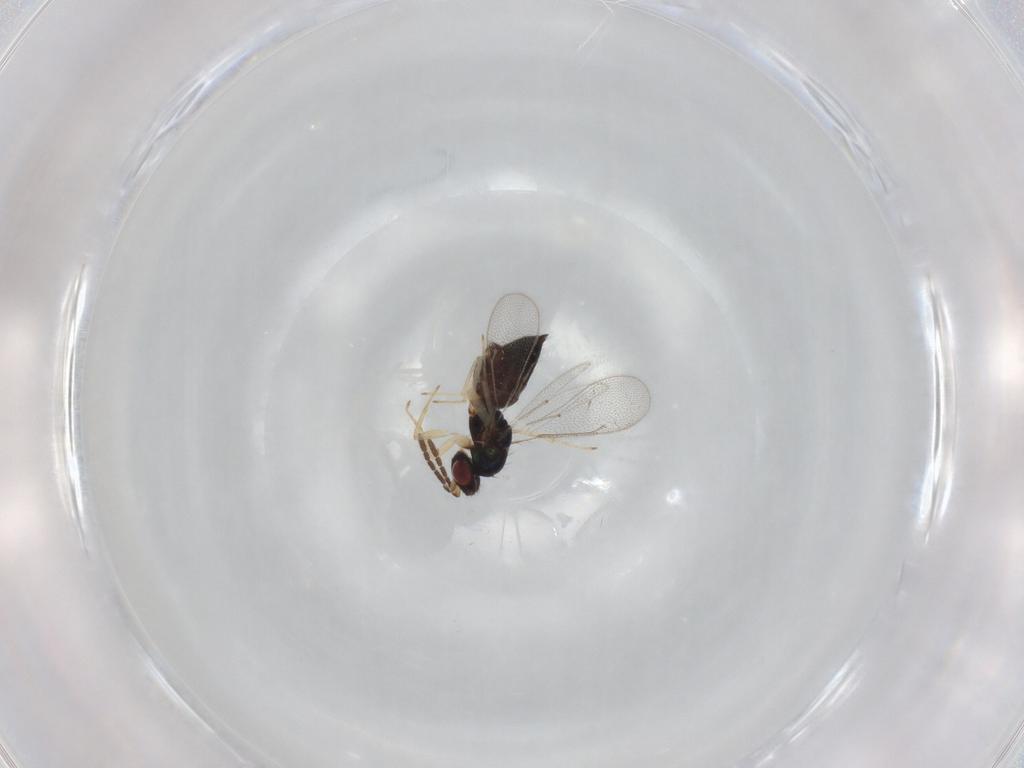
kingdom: Animalia
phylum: Arthropoda
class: Insecta
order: Hymenoptera
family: Eulophidae
